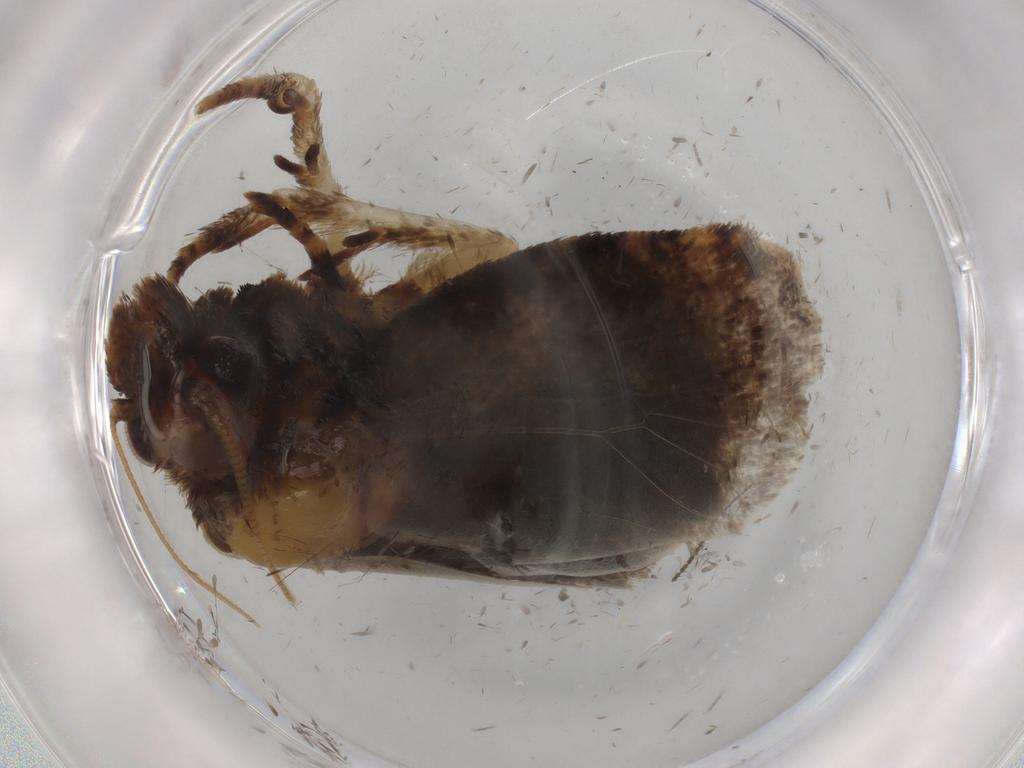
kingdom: Animalia
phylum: Arthropoda
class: Insecta
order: Lepidoptera
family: Tineidae
